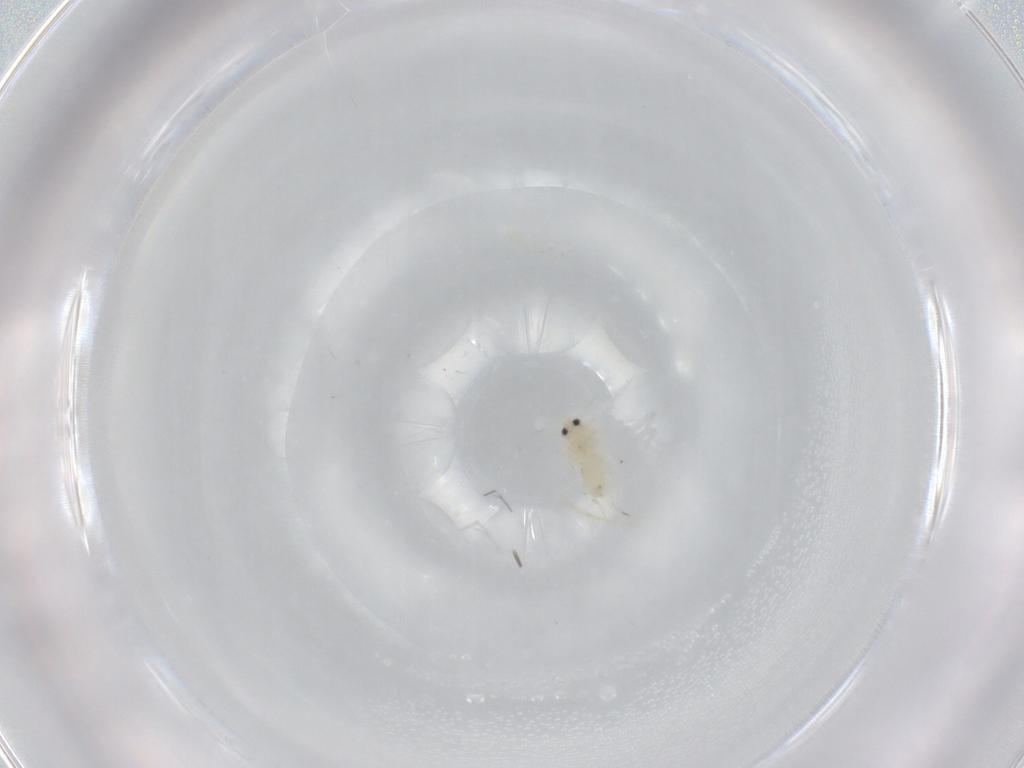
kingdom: Animalia
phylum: Arthropoda
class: Insecta
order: Hemiptera
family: Aleyrodidae
